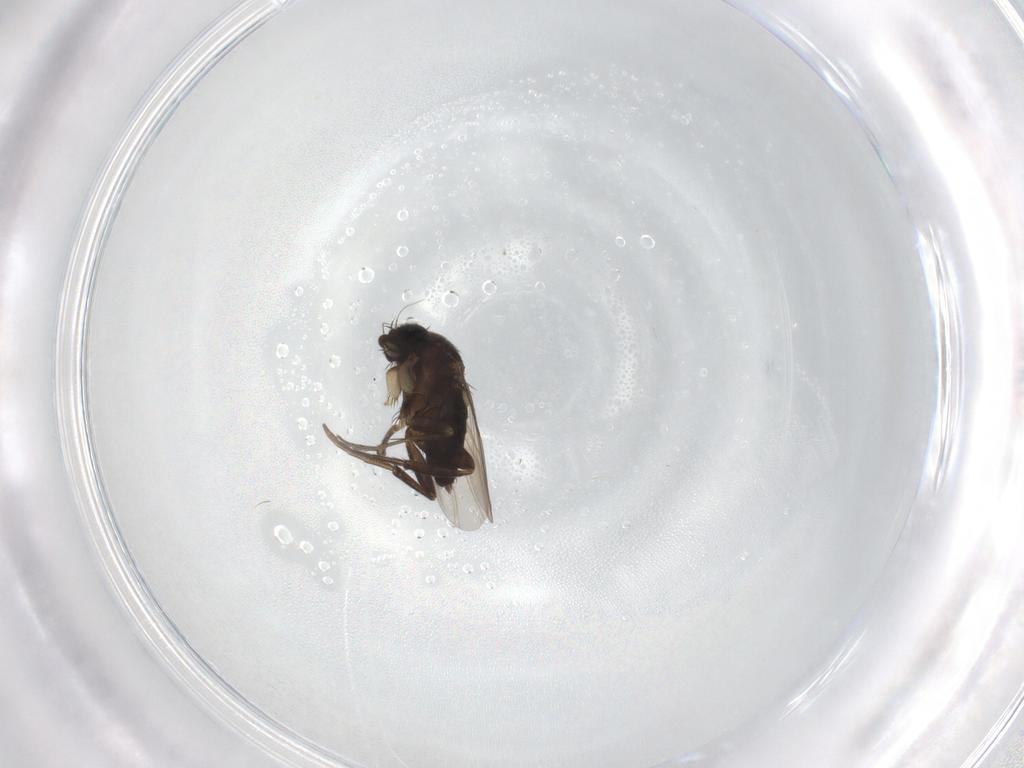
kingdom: Animalia
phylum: Arthropoda
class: Insecta
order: Diptera
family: Phoridae
